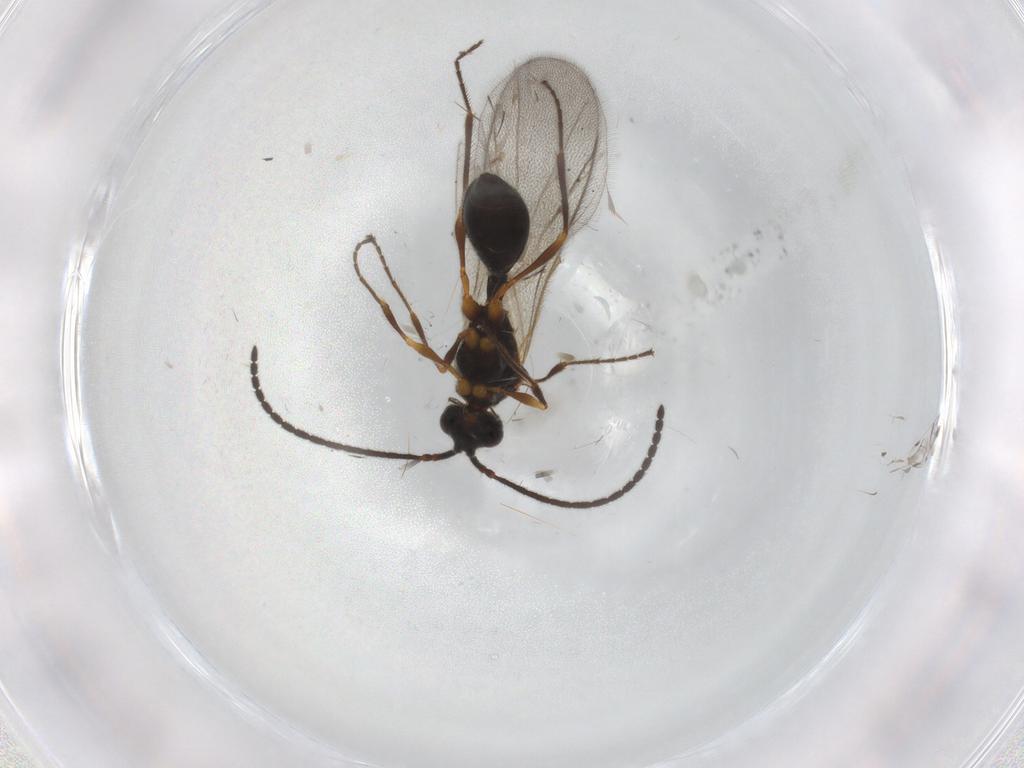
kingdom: Animalia
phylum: Arthropoda
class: Insecta
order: Hymenoptera
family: Diapriidae
